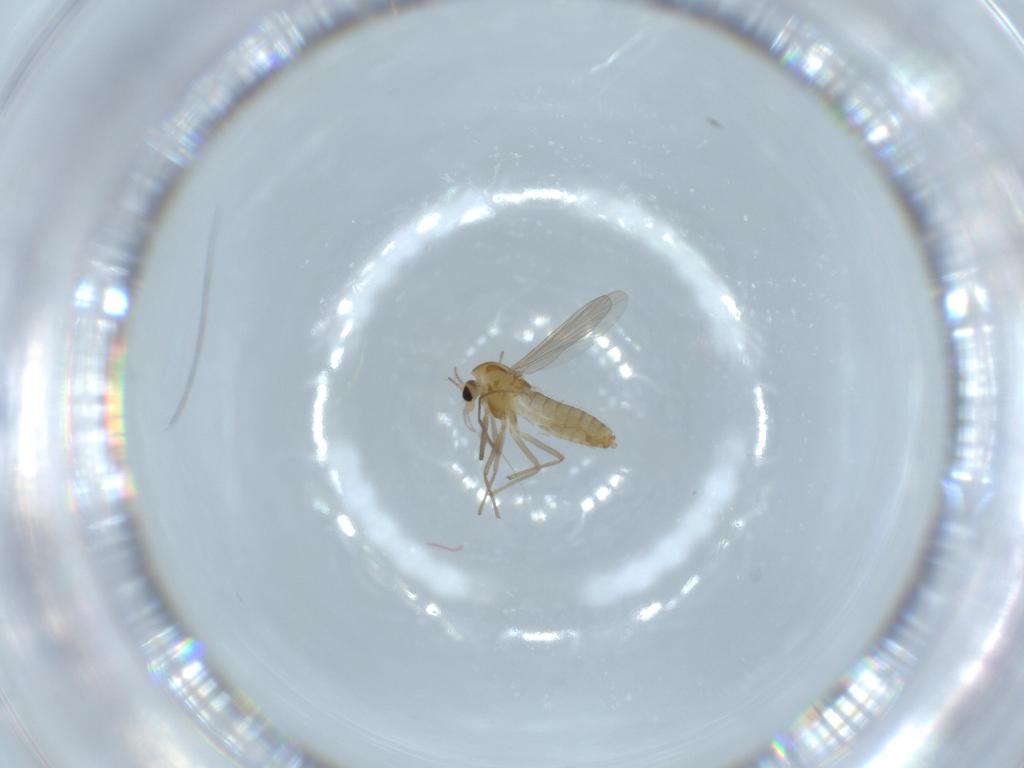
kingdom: Animalia
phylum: Arthropoda
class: Insecta
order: Diptera
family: Chironomidae
